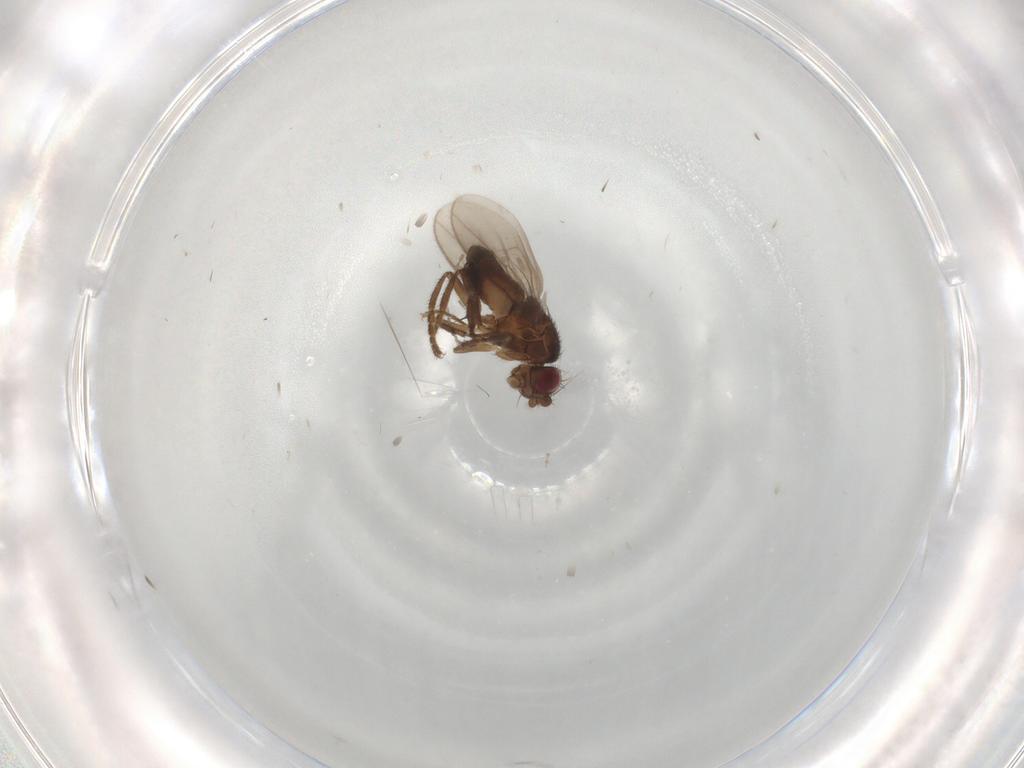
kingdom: Animalia
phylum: Arthropoda
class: Insecta
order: Diptera
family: Sphaeroceridae
